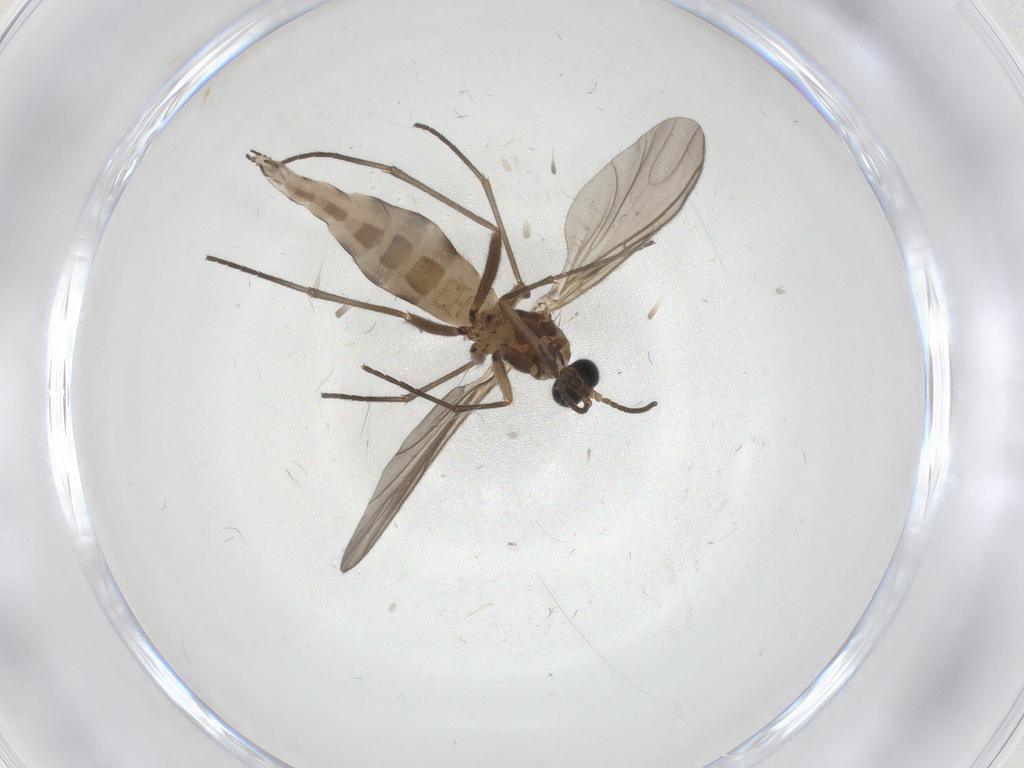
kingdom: Animalia
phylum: Arthropoda
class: Insecta
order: Diptera
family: Sciaridae
